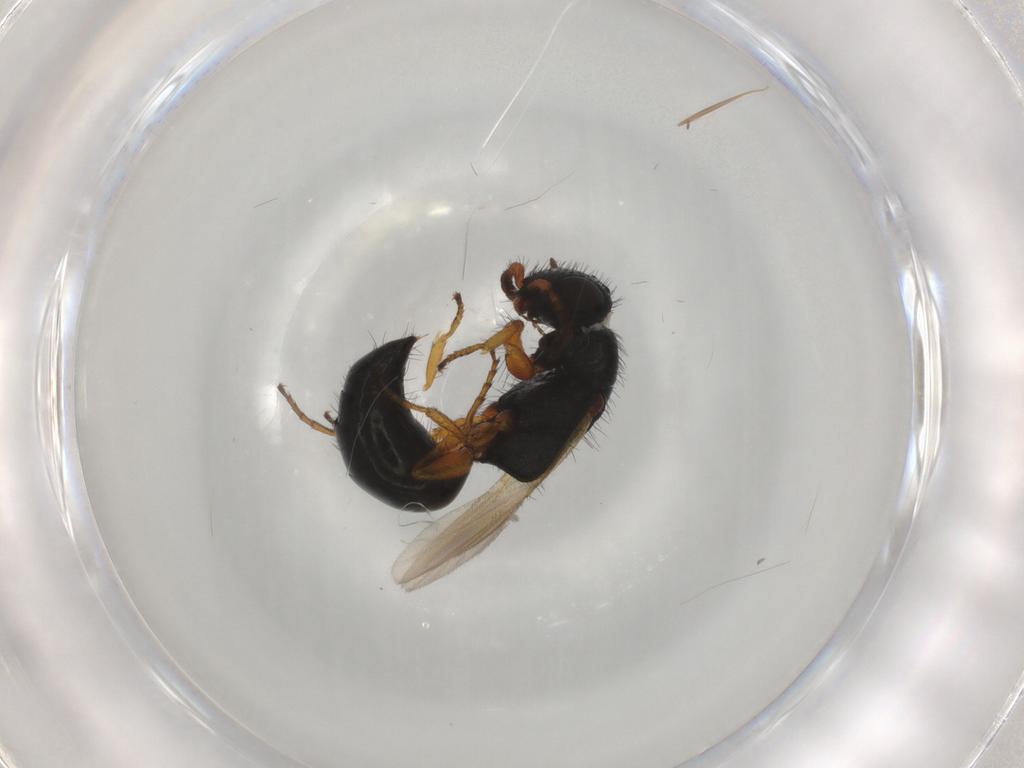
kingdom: Animalia
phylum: Arthropoda
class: Insecta
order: Hymenoptera
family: Bethylidae
